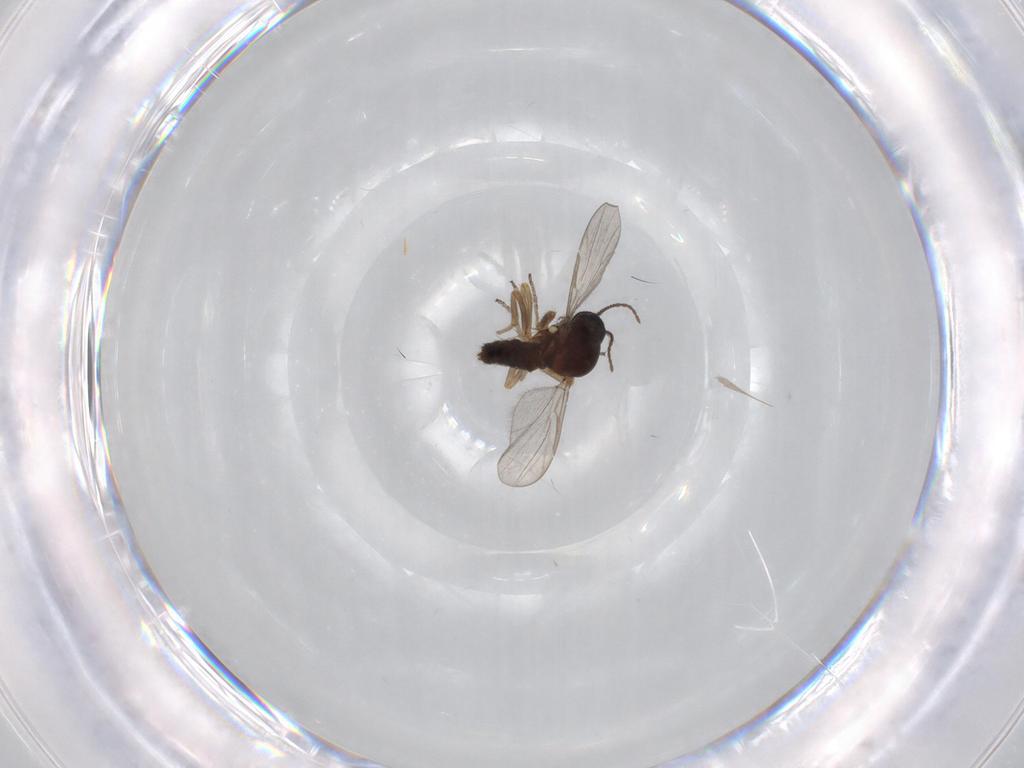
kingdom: Animalia
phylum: Arthropoda
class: Insecta
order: Diptera
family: Ceratopogonidae
